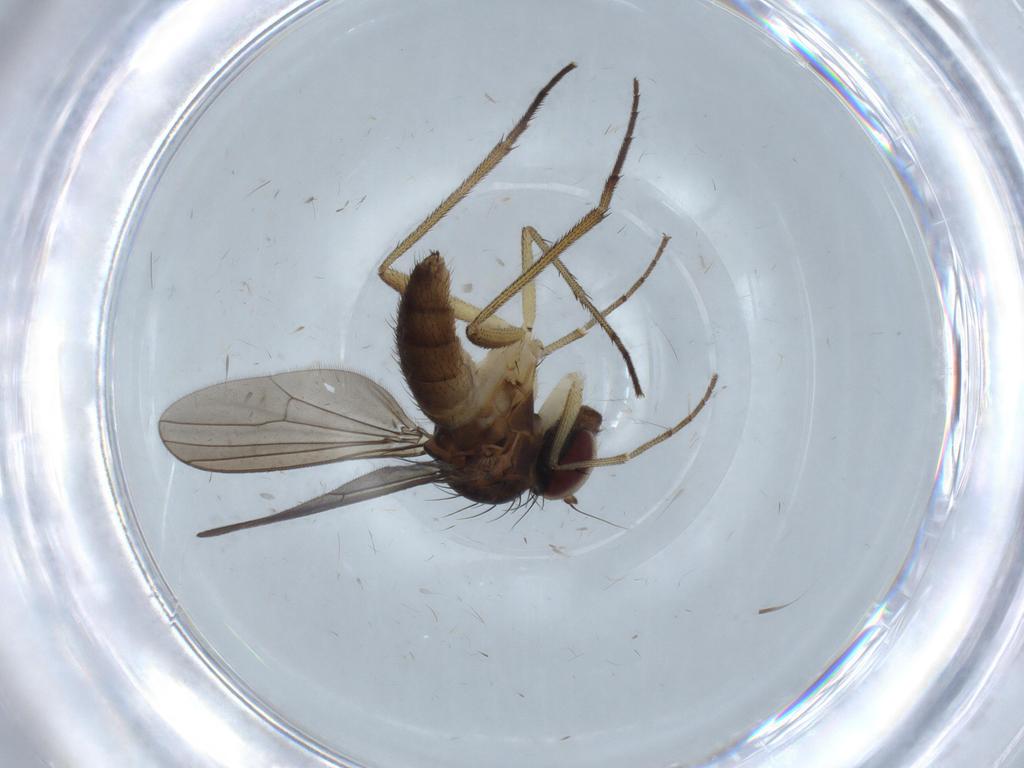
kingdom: Animalia
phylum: Arthropoda
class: Insecta
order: Diptera
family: Dolichopodidae
